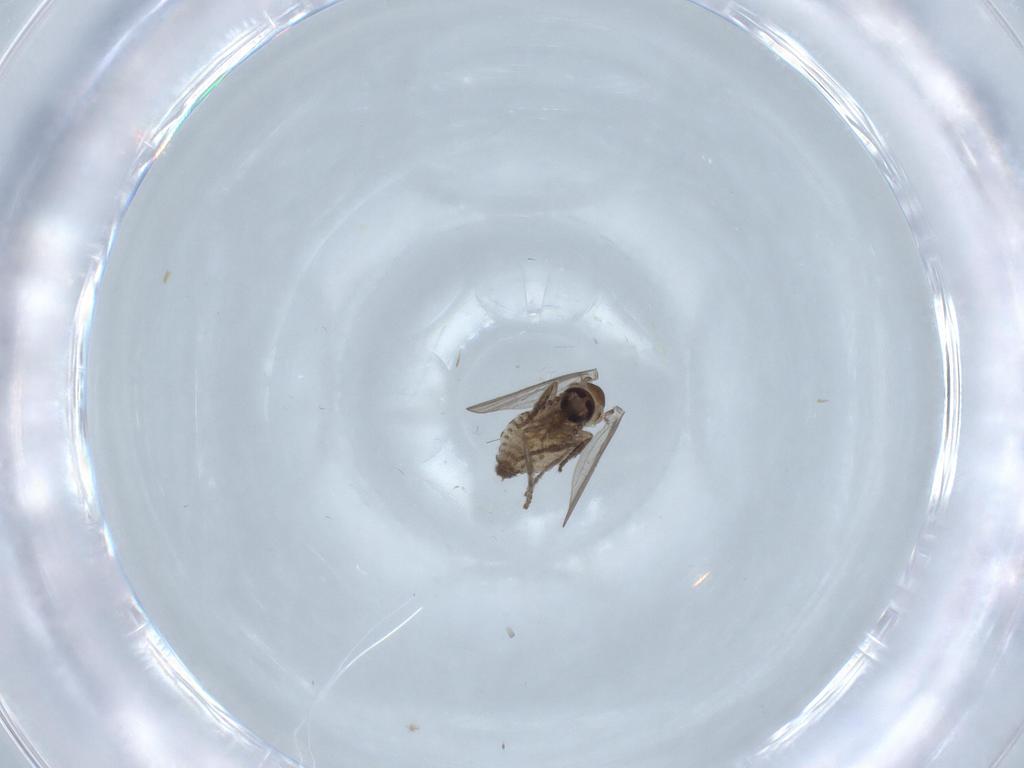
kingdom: Animalia
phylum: Arthropoda
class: Insecta
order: Diptera
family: Psychodidae
